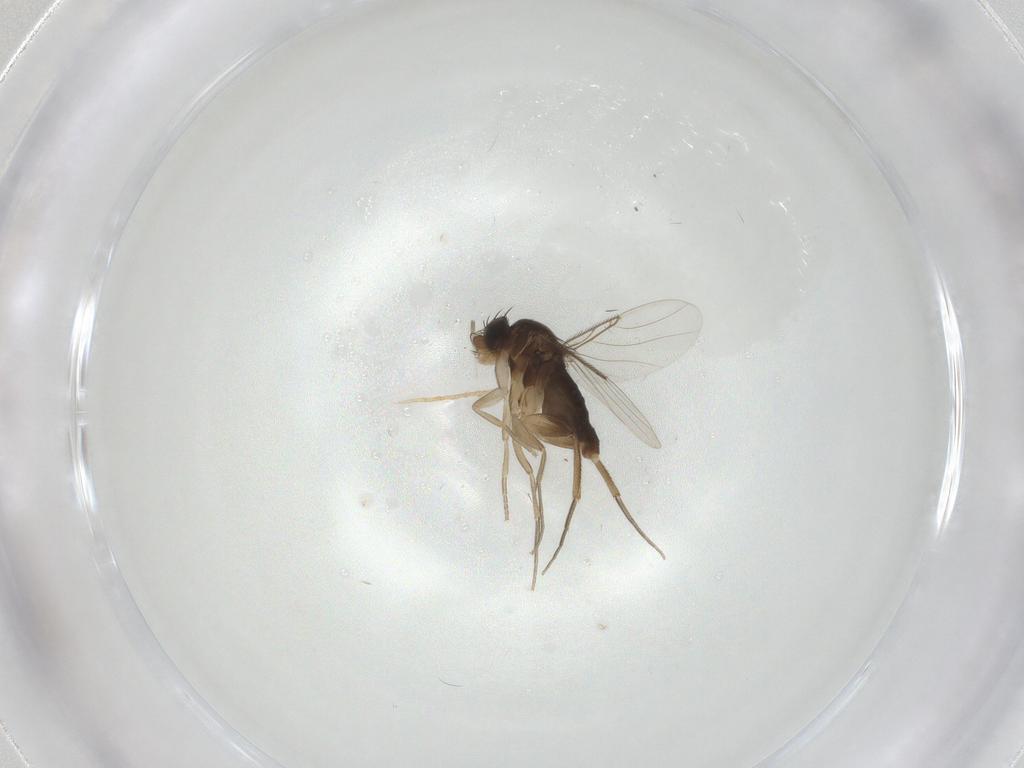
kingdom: Animalia
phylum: Arthropoda
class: Insecta
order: Diptera
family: Phoridae
